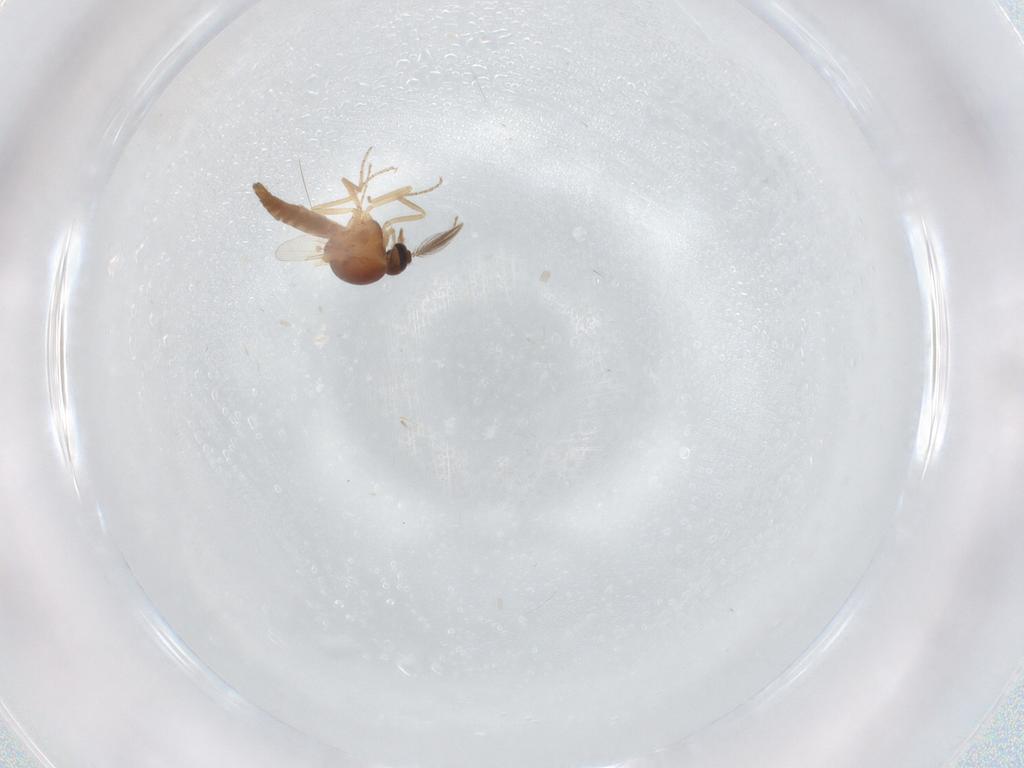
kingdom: Animalia
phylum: Arthropoda
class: Insecta
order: Diptera
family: Ceratopogonidae
